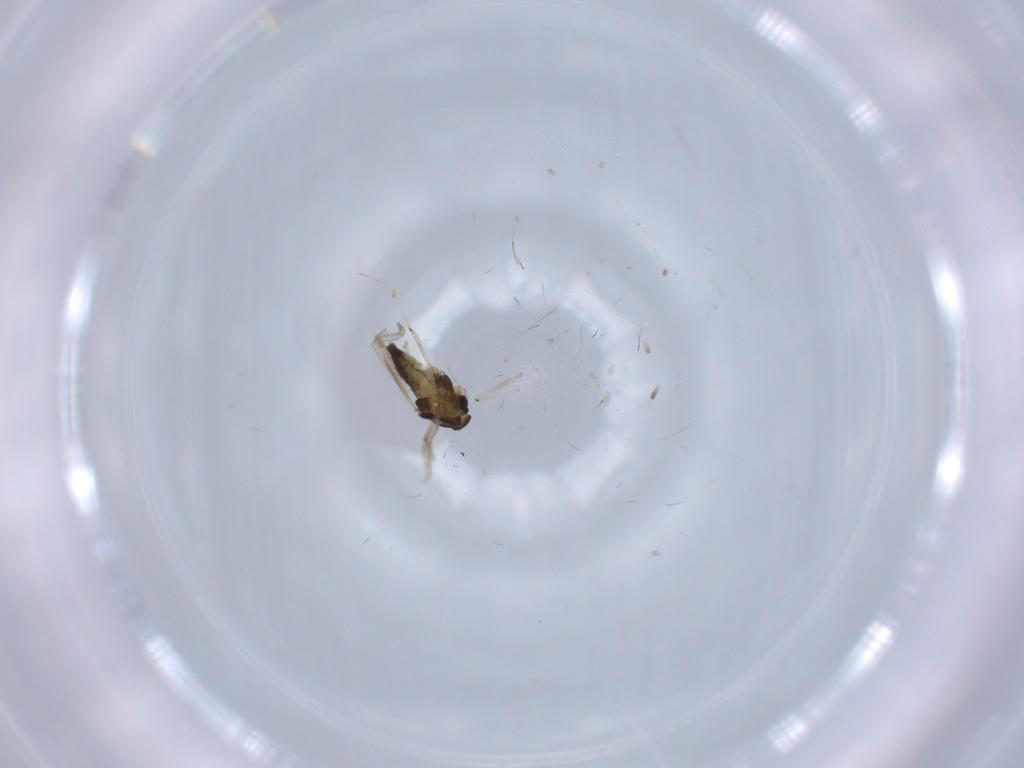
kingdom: Animalia
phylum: Arthropoda
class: Insecta
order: Diptera
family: Chironomidae
